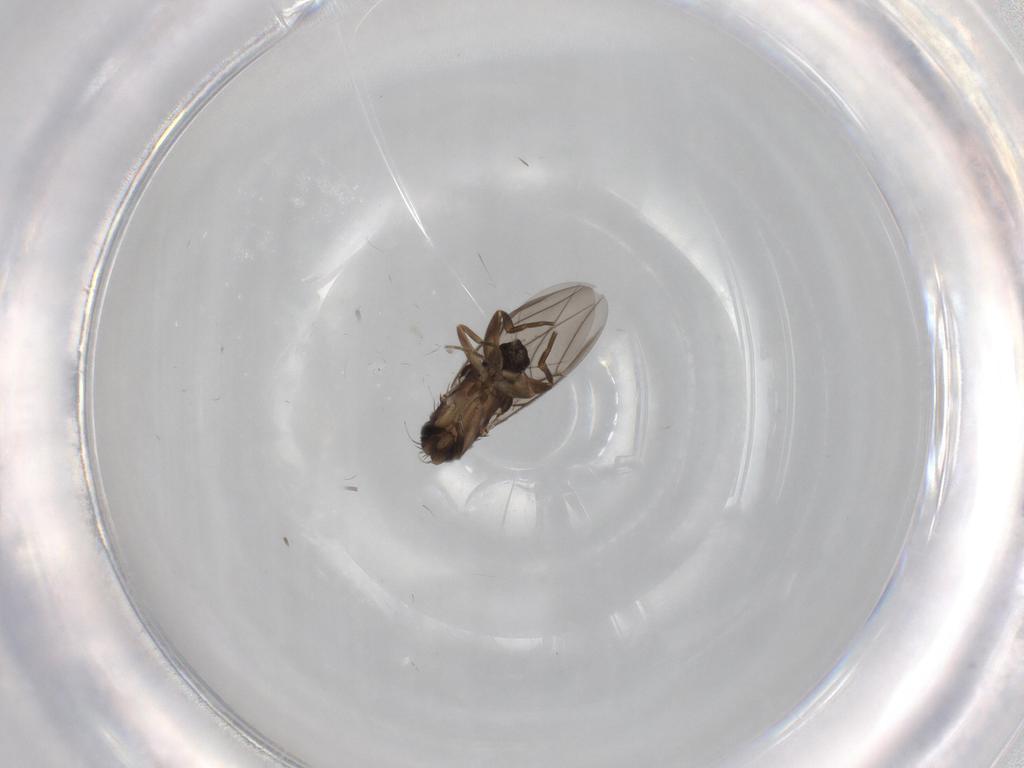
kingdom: Animalia
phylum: Arthropoda
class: Insecta
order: Diptera
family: Phoridae
